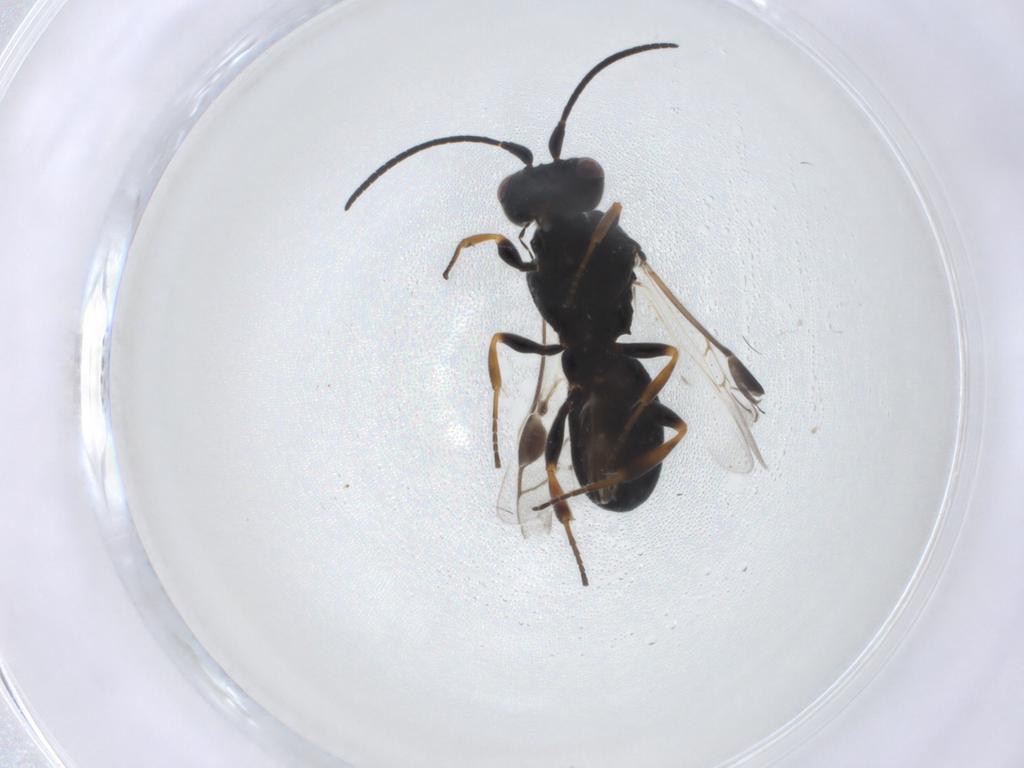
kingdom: Animalia
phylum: Arthropoda
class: Insecta
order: Hymenoptera
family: Braconidae
